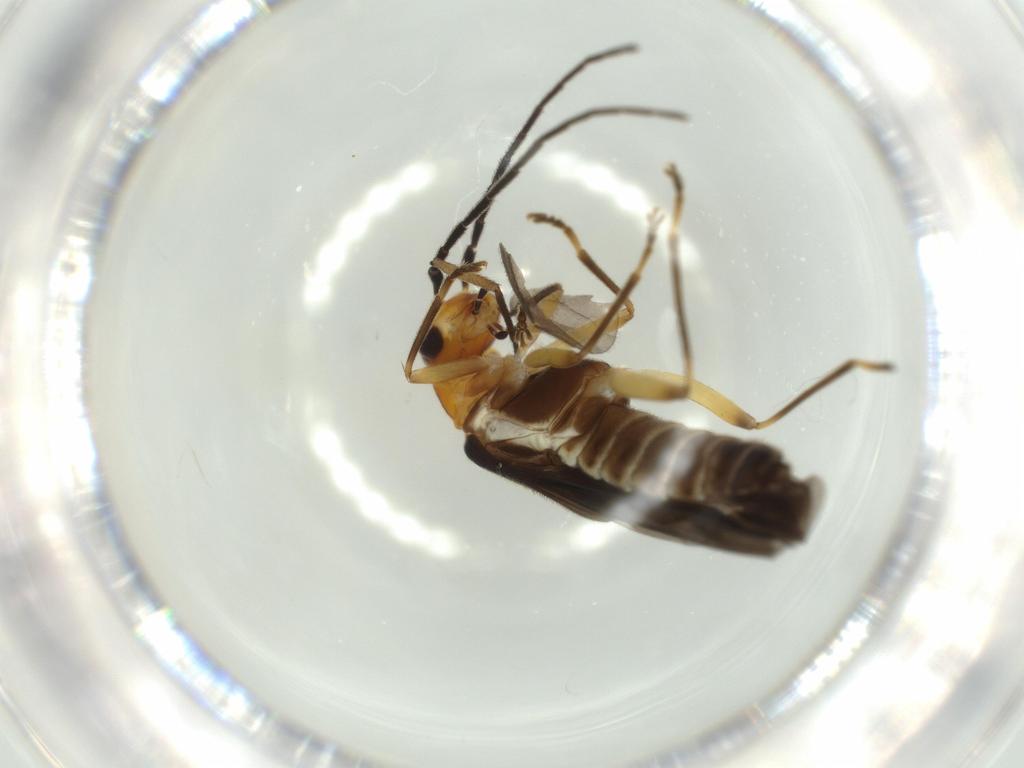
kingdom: Animalia
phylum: Arthropoda
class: Insecta
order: Coleoptera
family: Cantharidae
